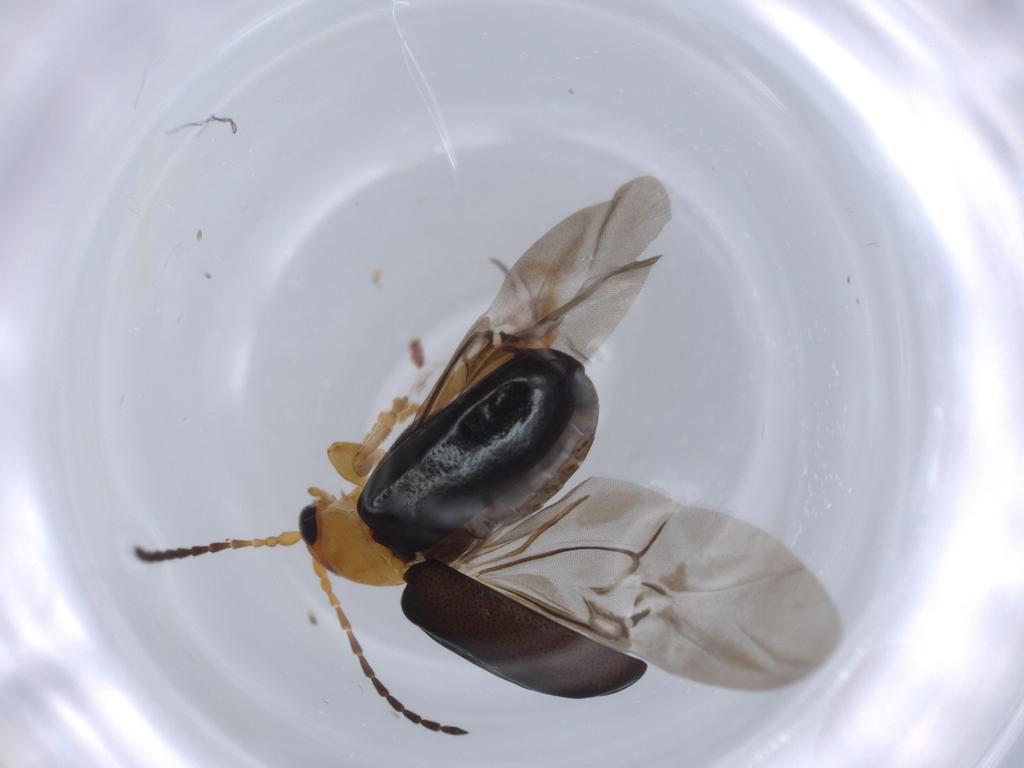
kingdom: Animalia
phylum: Arthropoda
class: Insecta
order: Coleoptera
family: Chrysomelidae
